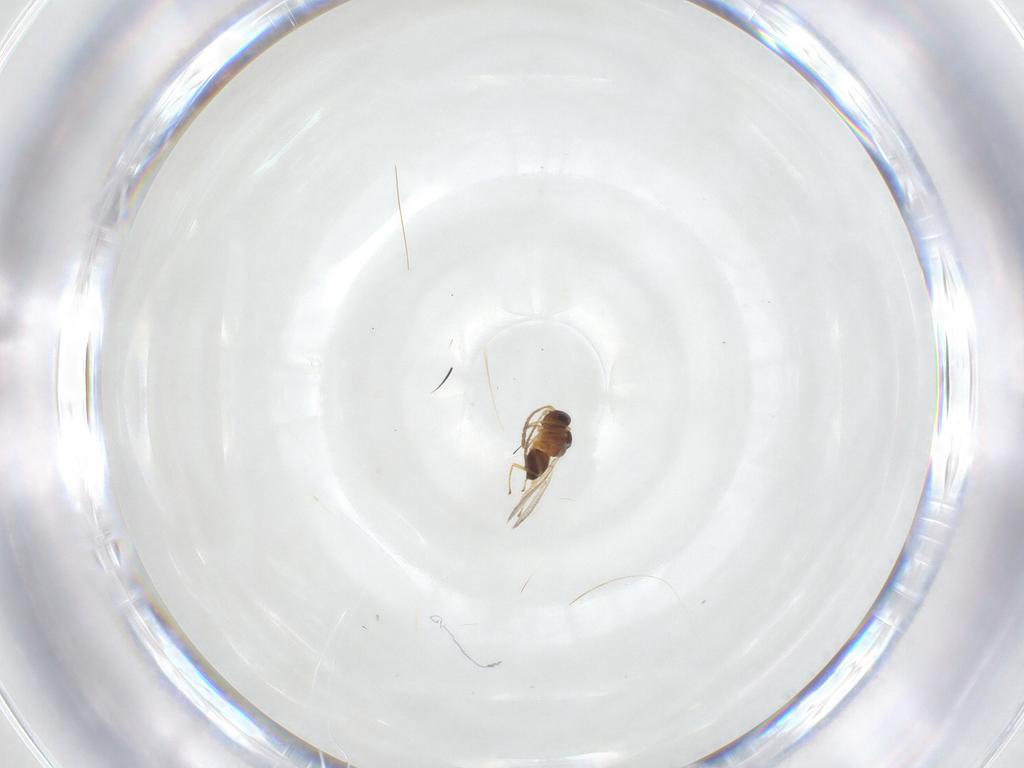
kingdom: Animalia
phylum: Arthropoda
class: Insecta
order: Hymenoptera
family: Figitidae
